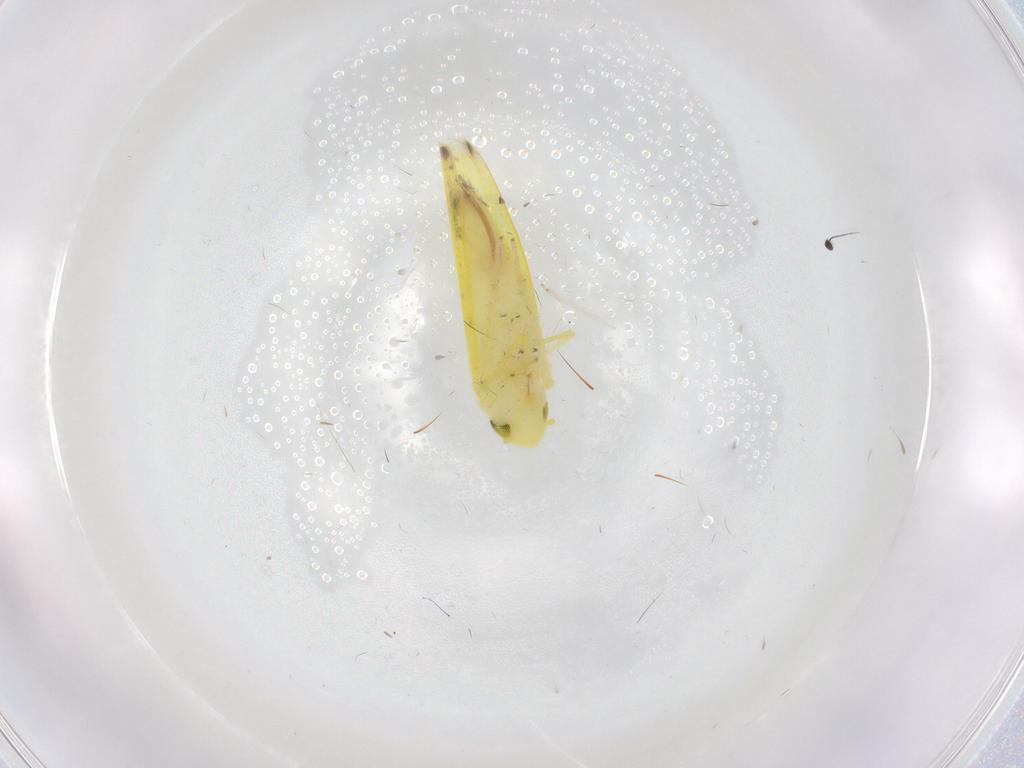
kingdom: Animalia
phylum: Arthropoda
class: Insecta
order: Hemiptera
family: Cicadellidae
